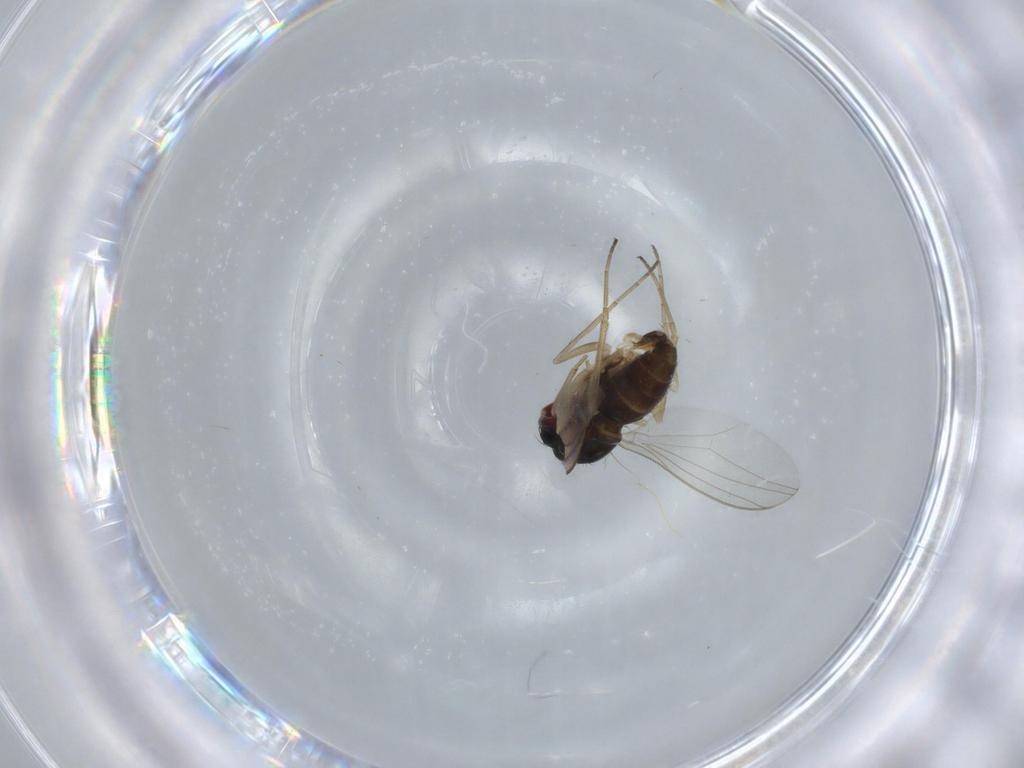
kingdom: Animalia
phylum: Arthropoda
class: Insecta
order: Diptera
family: Dolichopodidae
